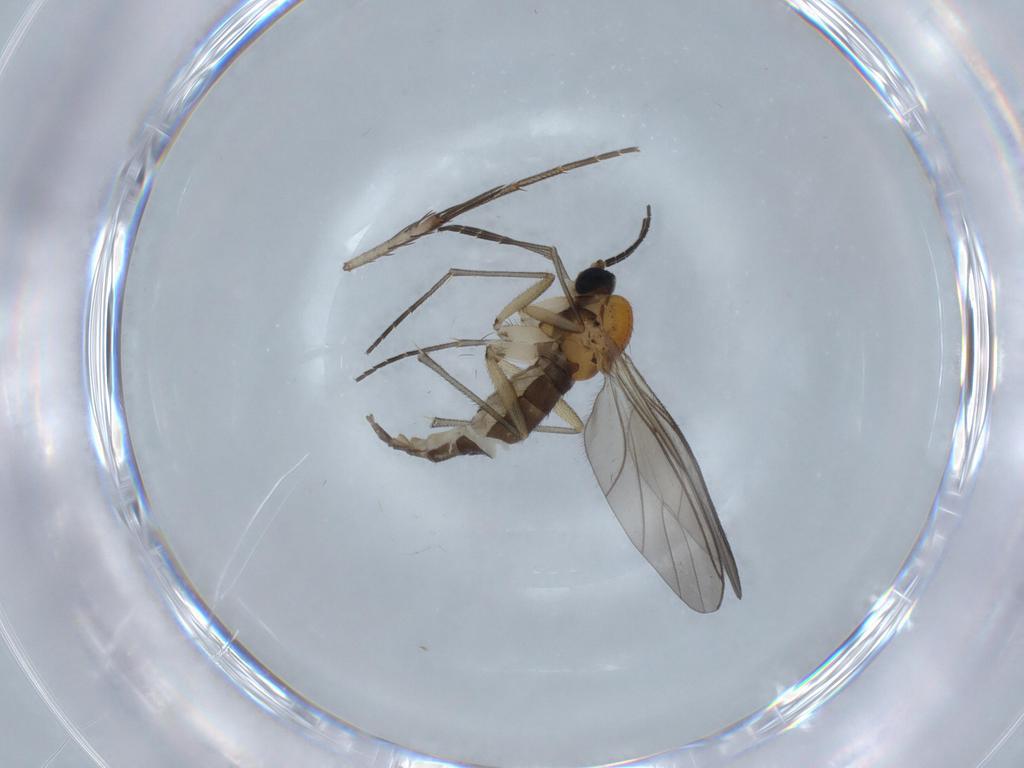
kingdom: Animalia
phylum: Arthropoda
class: Insecta
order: Diptera
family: Sciaridae
